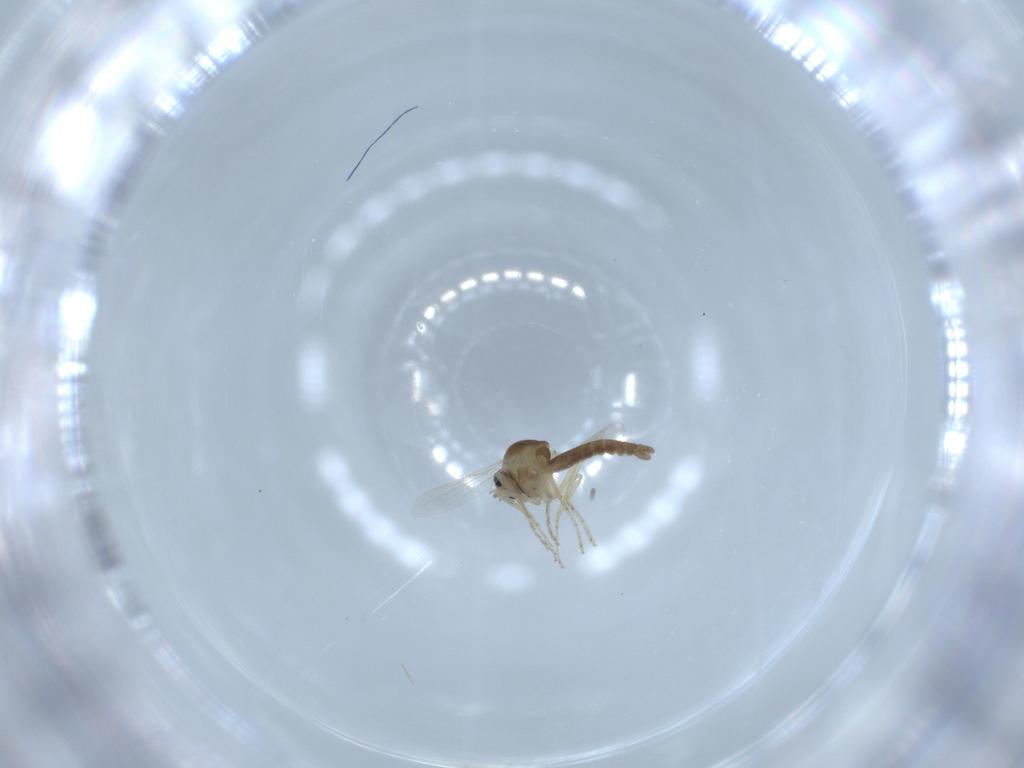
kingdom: Animalia
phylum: Arthropoda
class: Insecta
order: Diptera
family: Ceratopogonidae
